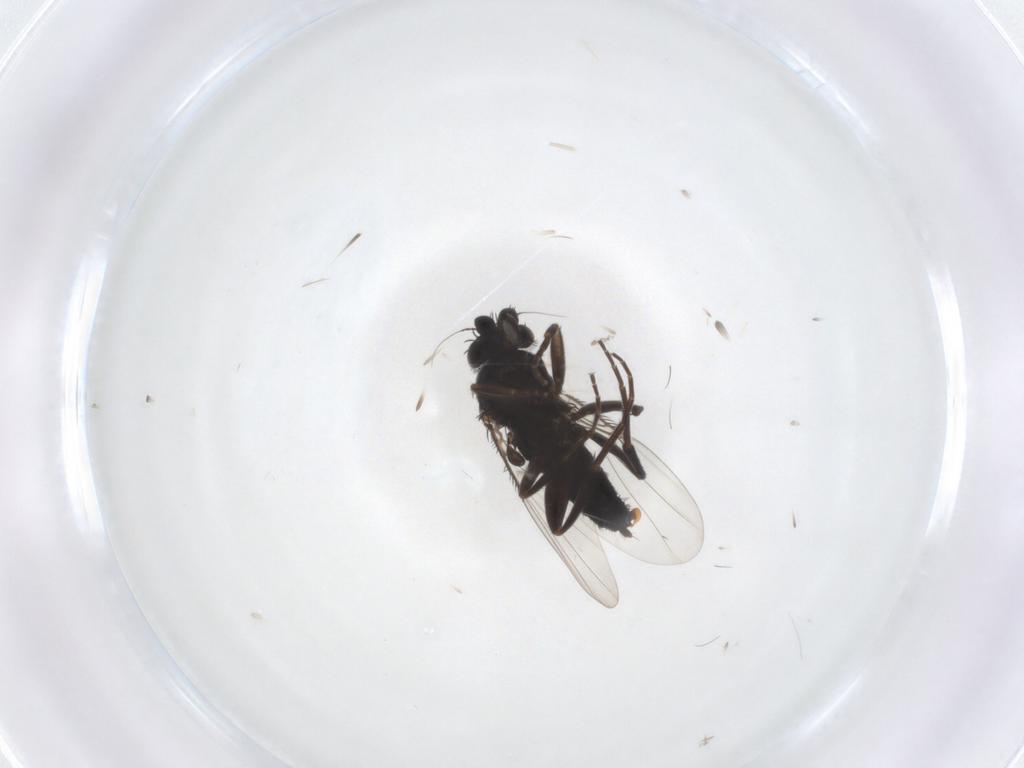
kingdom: Animalia
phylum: Arthropoda
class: Insecta
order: Diptera
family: Phoridae
